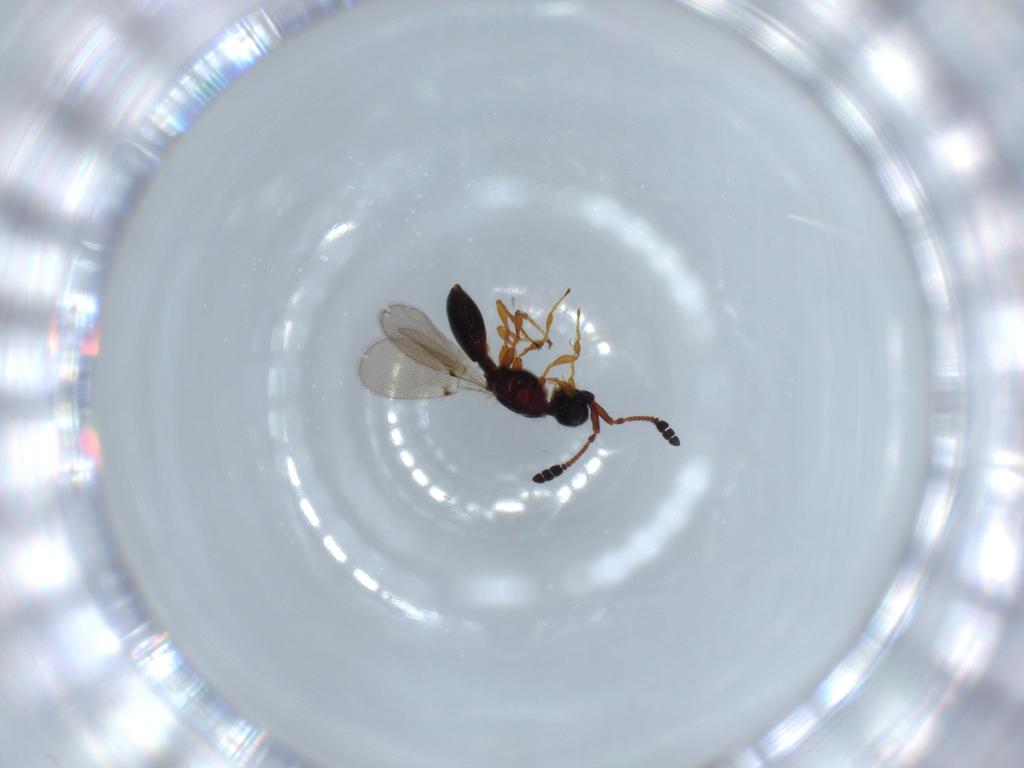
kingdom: Animalia
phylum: Arthropoda
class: Insecta
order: Hymenoptera
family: Diapriidae
